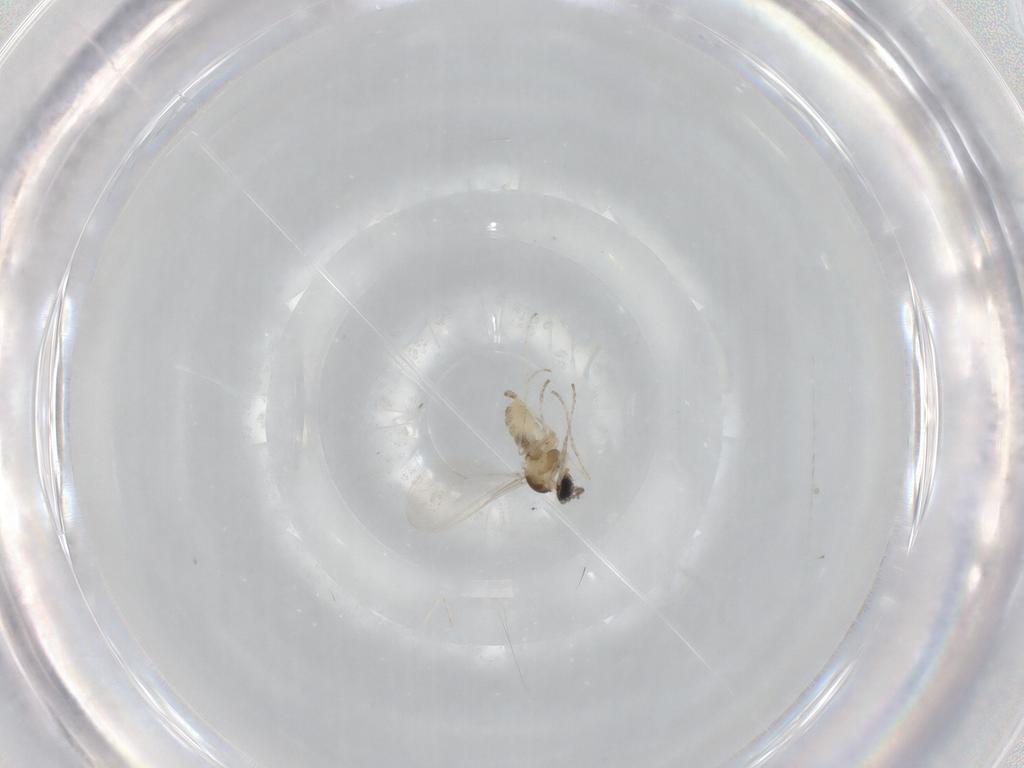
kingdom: Animalia
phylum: Arthropoda
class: Insecta
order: Diptera
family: Cecidomyiidae
